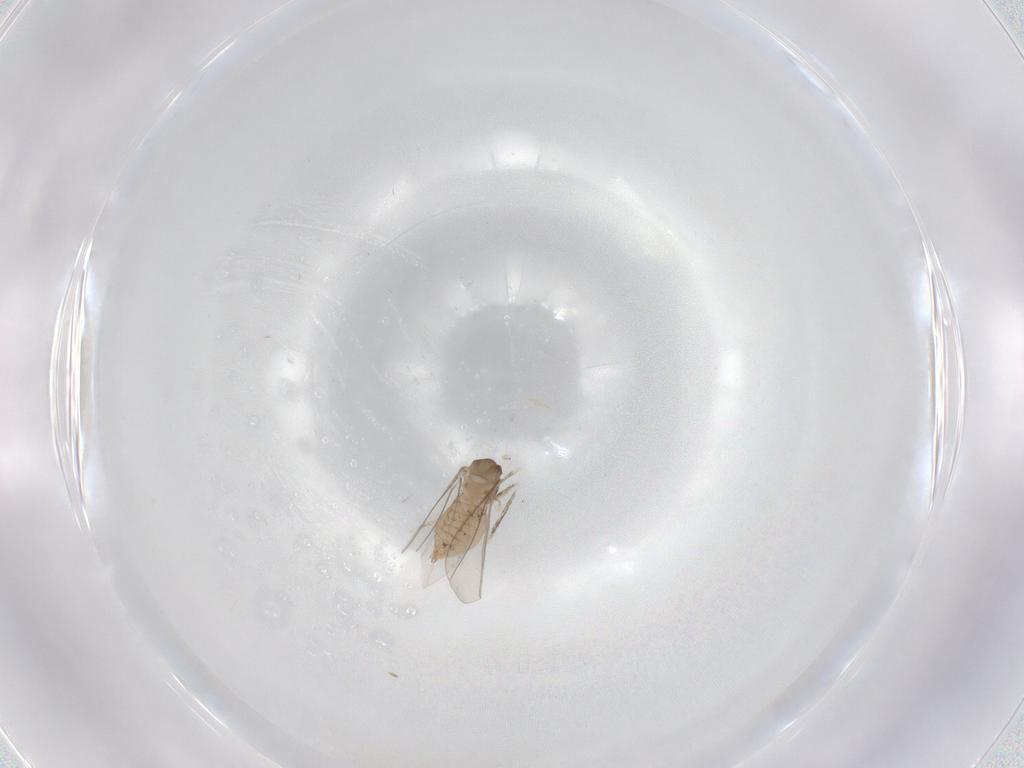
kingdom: Animalia
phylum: Arthropoda
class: Insecta
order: Diptera
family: Cecidomyiidae
